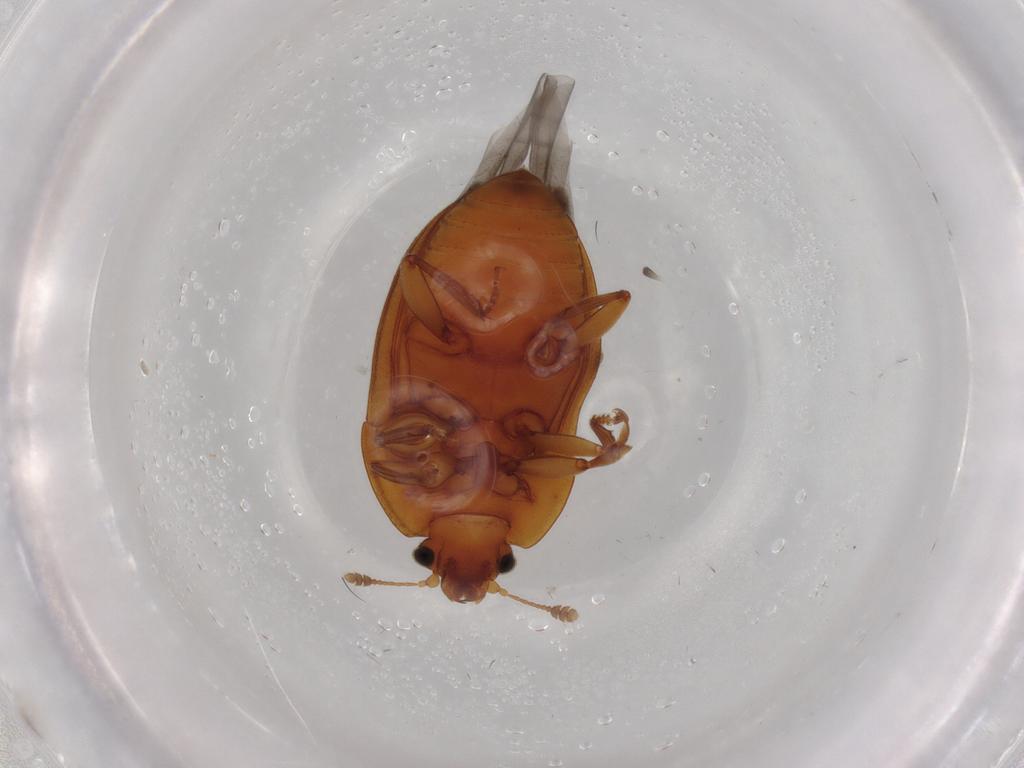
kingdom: Animalia
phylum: Arthropoda
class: Insecta
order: Coleoptera
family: Nitidulidae
